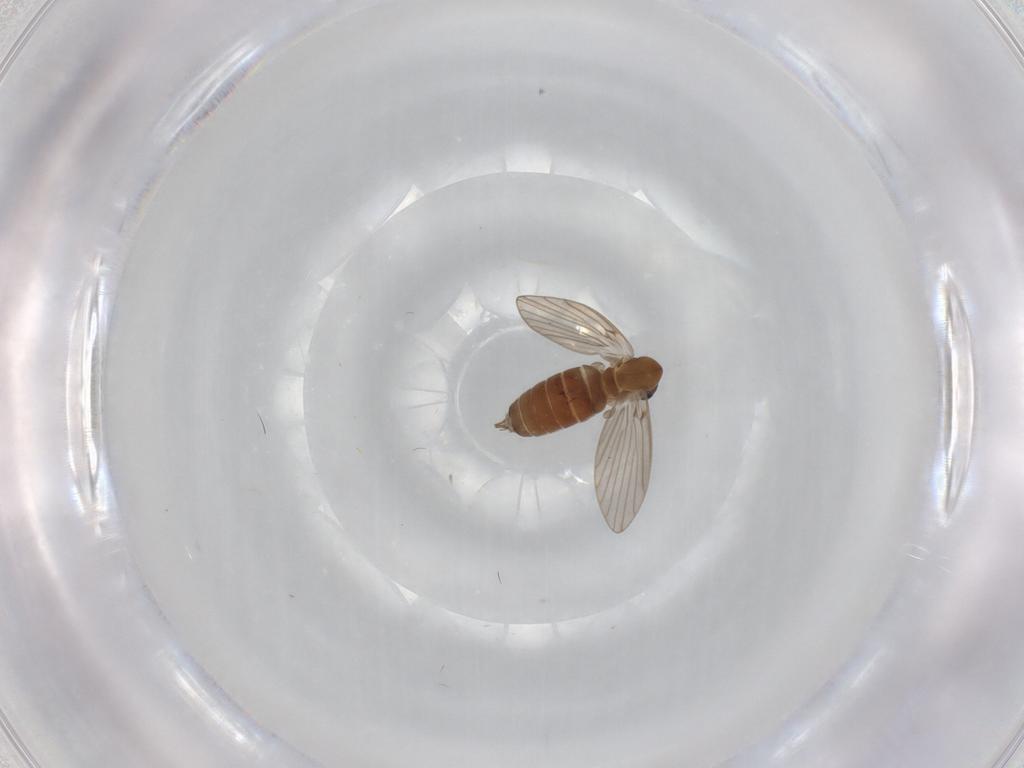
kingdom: Animalia
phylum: Arthropoda
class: Insecta
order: Diptera
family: Psychodidae
